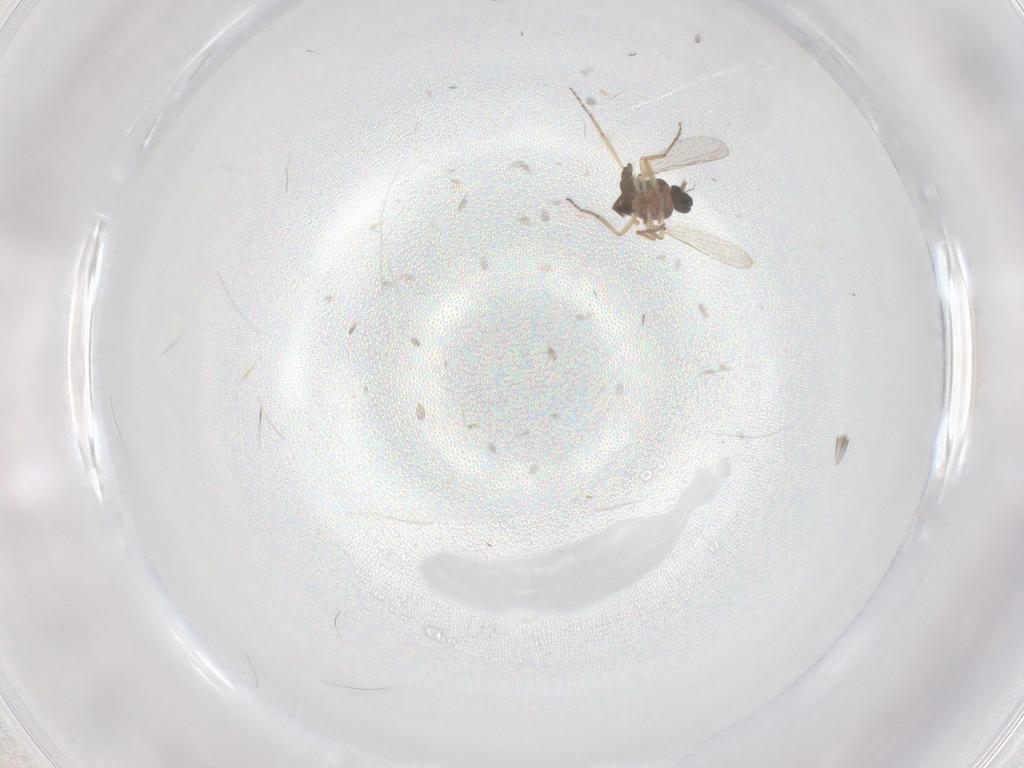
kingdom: Animalia
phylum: Arthropoda
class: Insecta
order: Diptera
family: Ceratopogonidae
